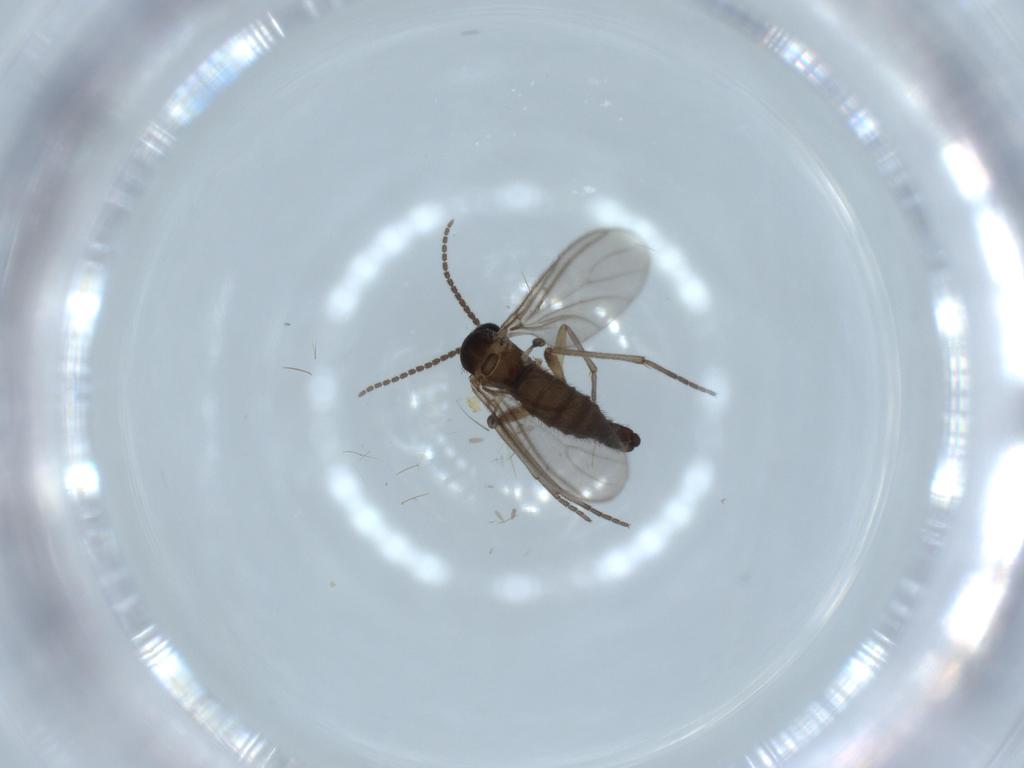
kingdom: Animalia
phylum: Arthropoda
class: Insecta
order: Diptera
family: Sciaridae
